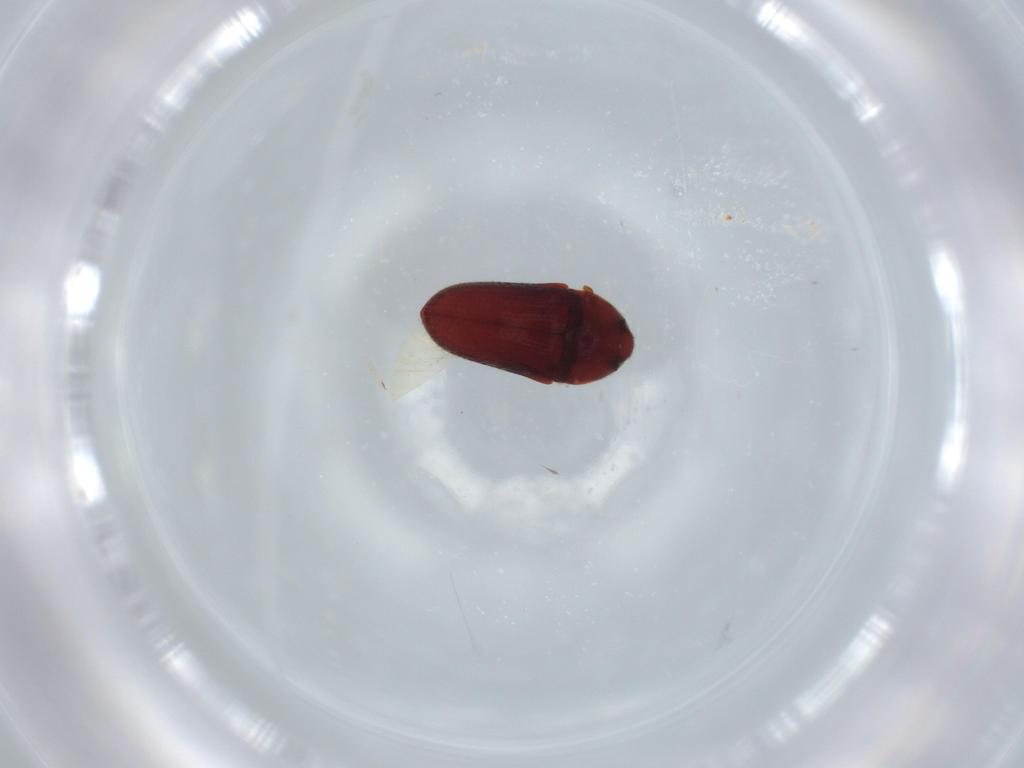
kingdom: Animalia
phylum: Arthropoda
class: Insecta
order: Coleoptera
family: Throscidae
